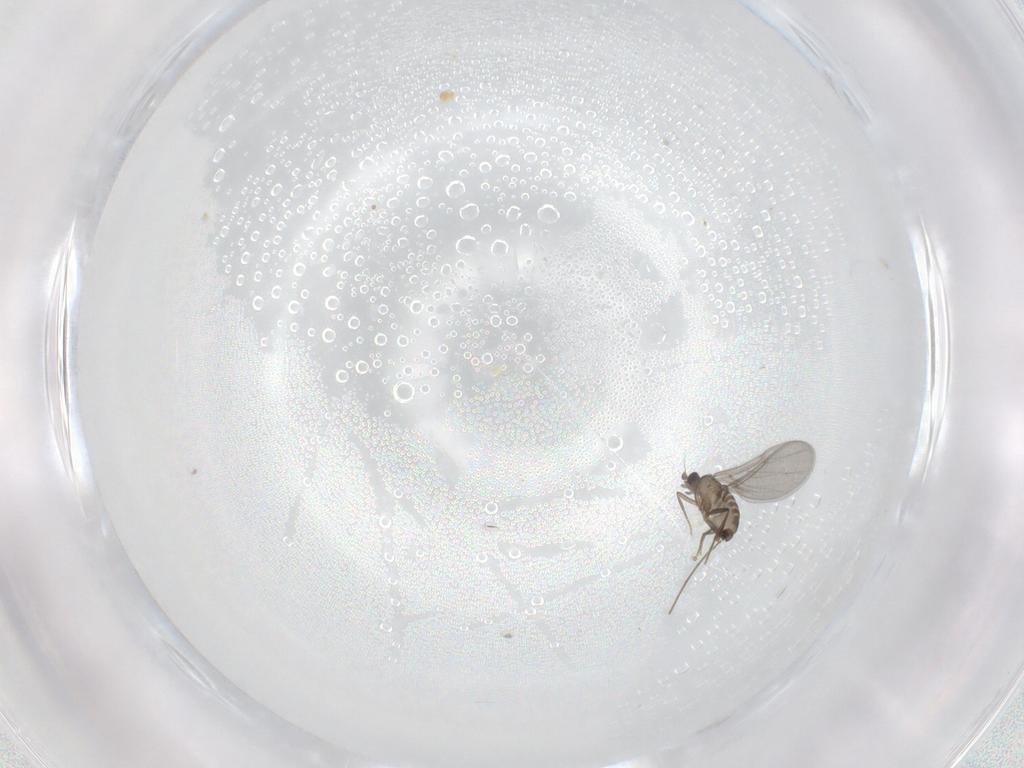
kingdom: Animalia
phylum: Arthropoda
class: Insecta
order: Diptera
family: Chironomidae
